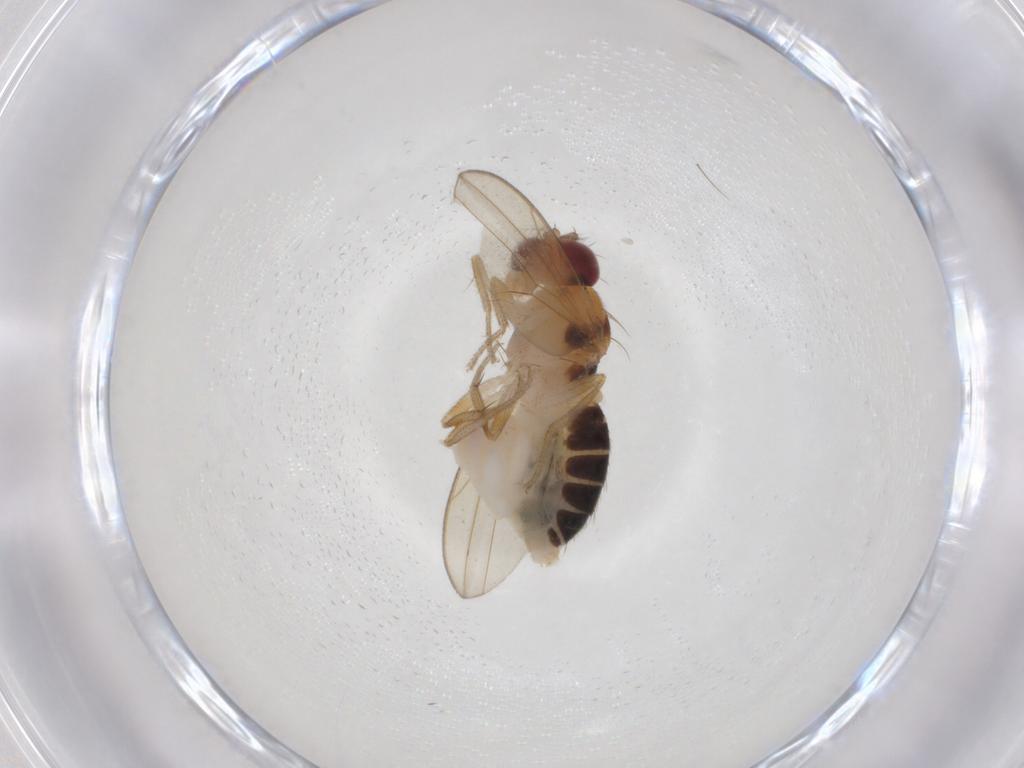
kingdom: Animalia
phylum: Arthropoda
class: Insecta
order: Diptera
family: Drosophilidae
